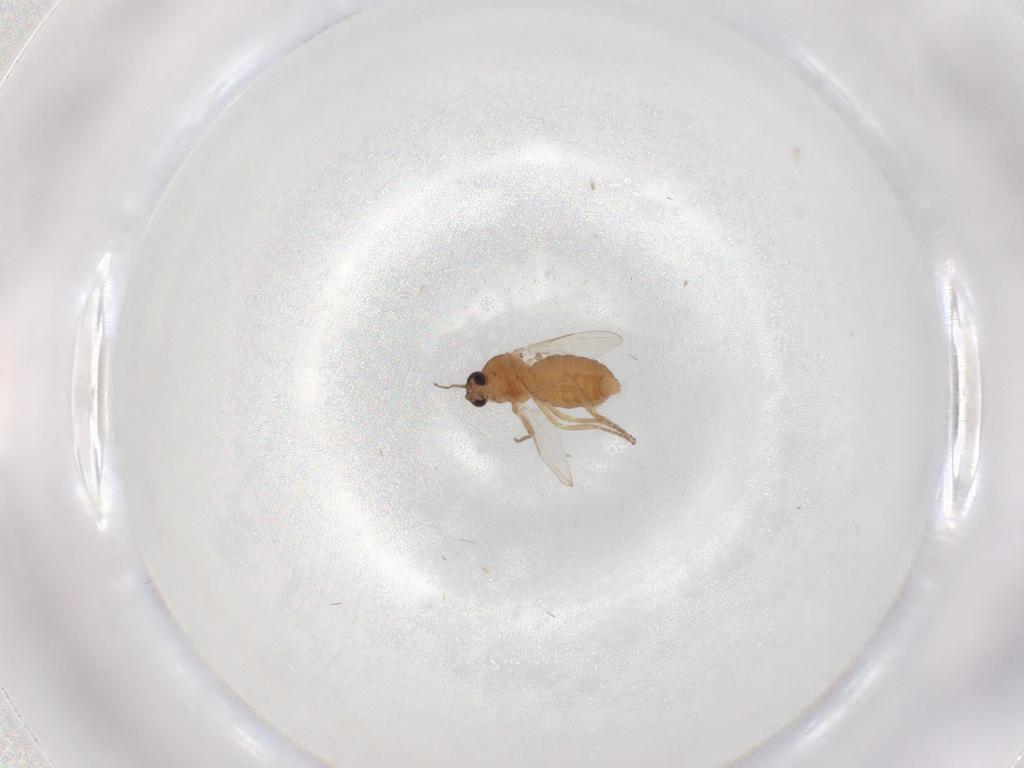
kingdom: Animalia
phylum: Arthropoda
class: Insecta
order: Diptera
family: Ceratopogonidae
